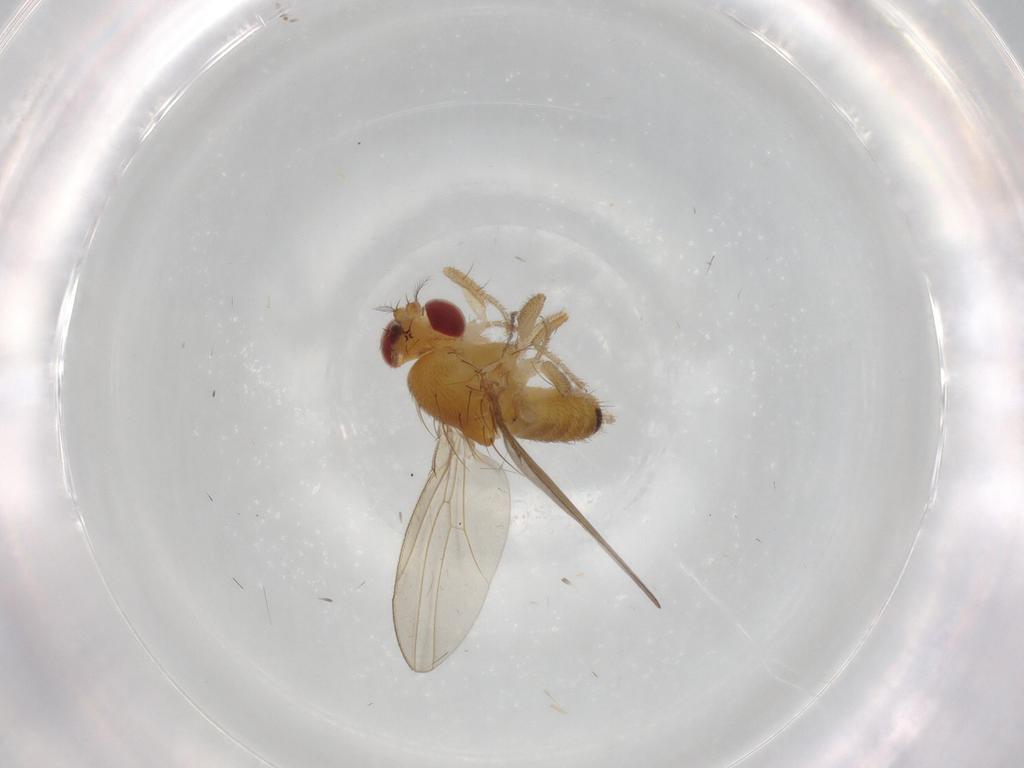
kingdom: Animalia
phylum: Arthropoda
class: Insecta
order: Diptera
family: Drosophilidae
